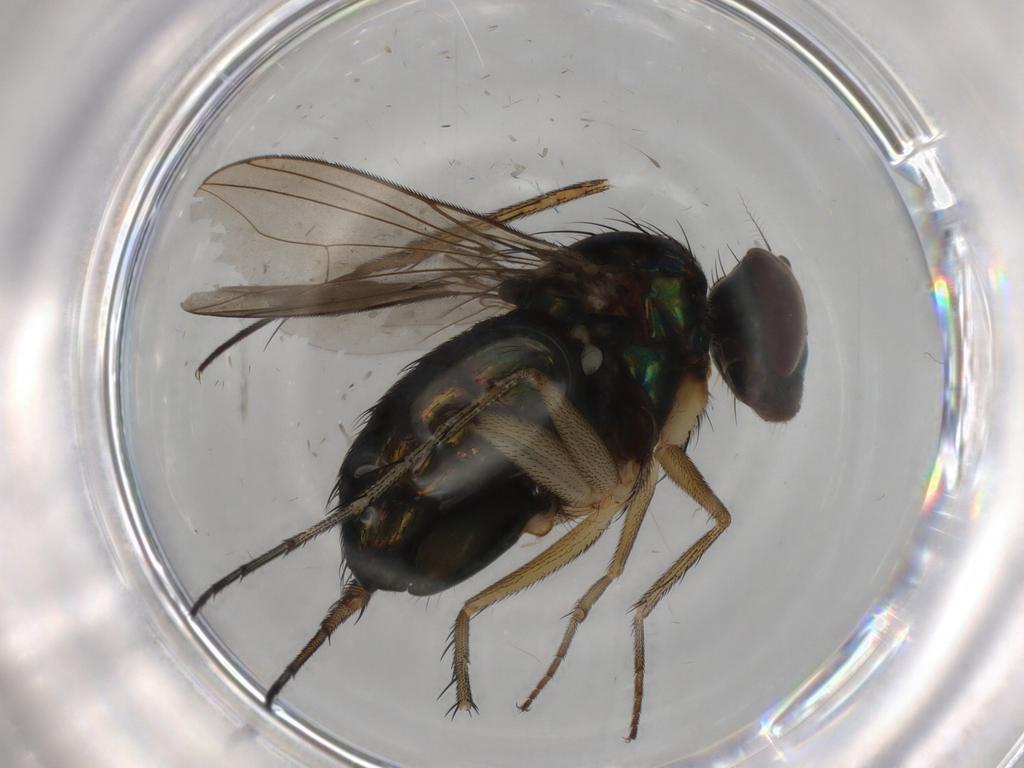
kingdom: Animalia
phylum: Arthropoda
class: Insecta
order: Diptera
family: Dolichopodidae
